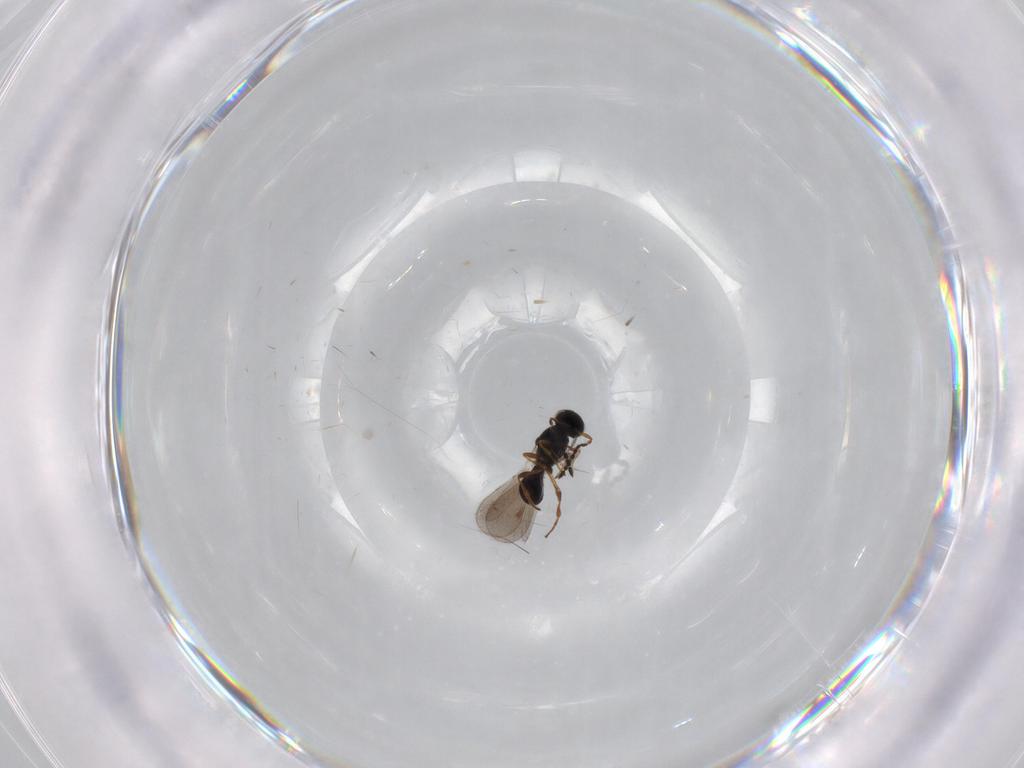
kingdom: Animalia
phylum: Arthropoda
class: Insecta
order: Hymenoptera
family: Platygastridae
